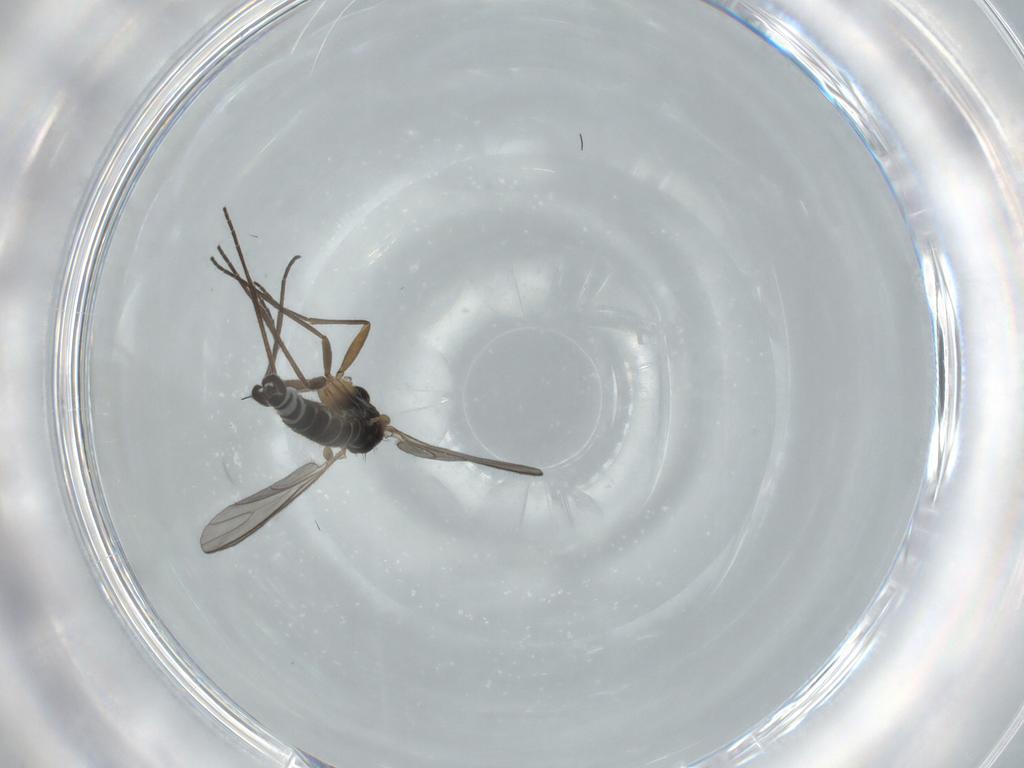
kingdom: Animalia
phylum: Arthropoda
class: Insecta
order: Diptera
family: Sciaridae
